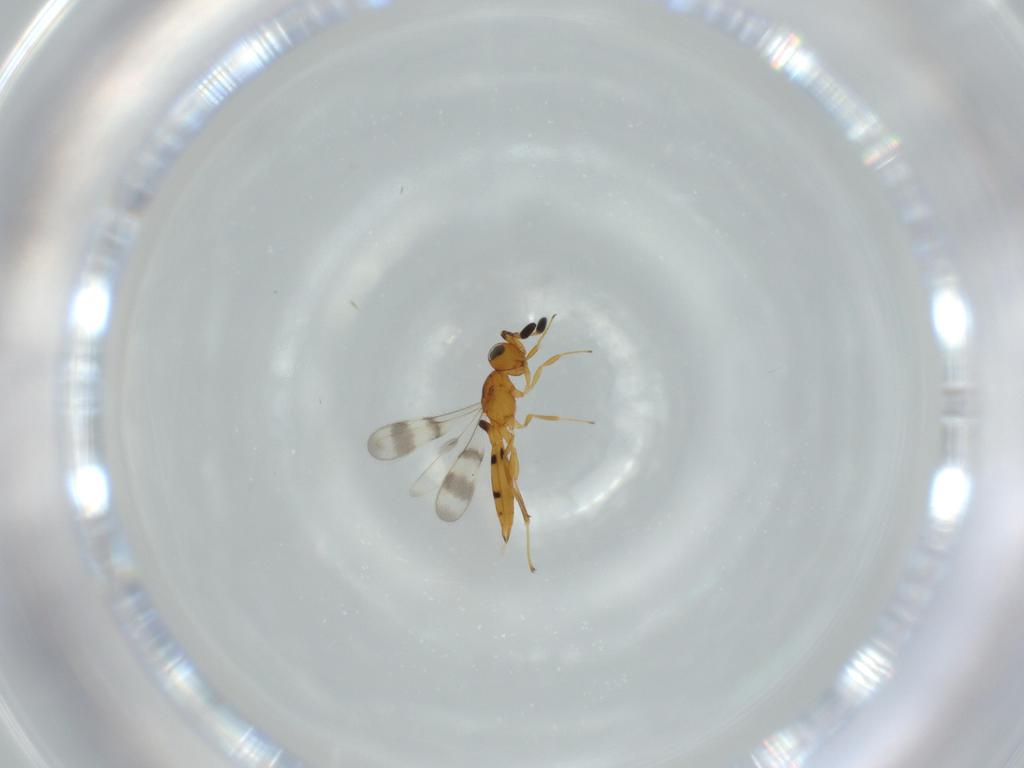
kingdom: Animalia
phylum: Arthropoda
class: Insecta
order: Hymenoptera
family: Scelionidae
